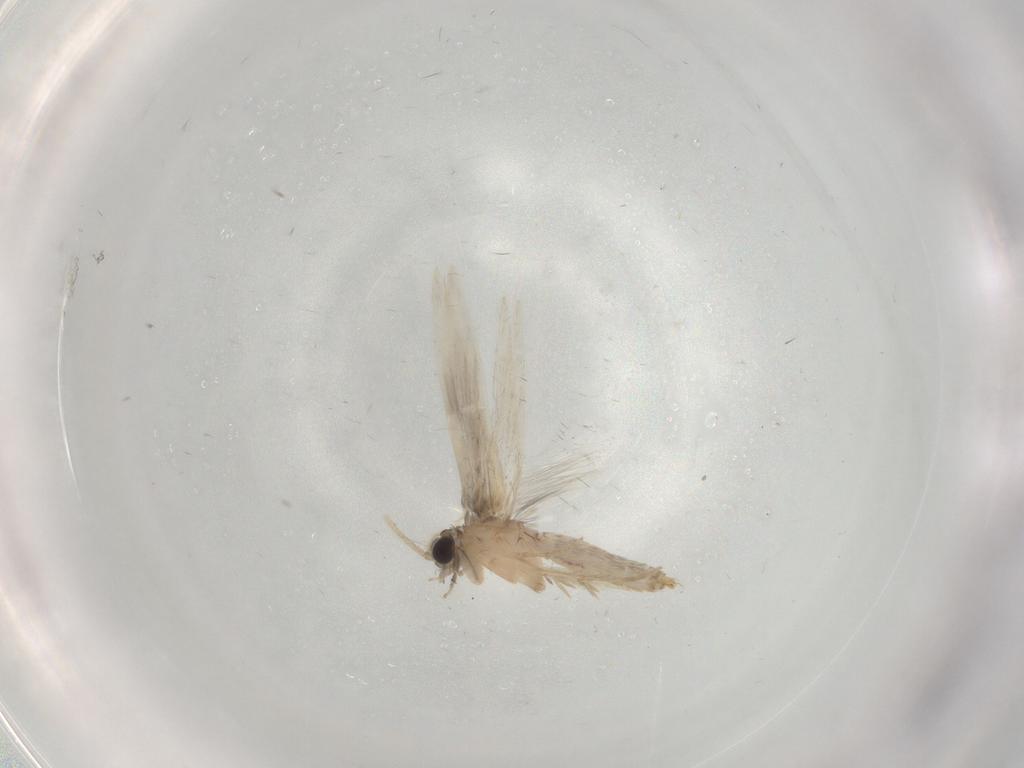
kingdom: Animalia
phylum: Arthropoda
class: Insecta
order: Trichoptera
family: Hydroptilidae
